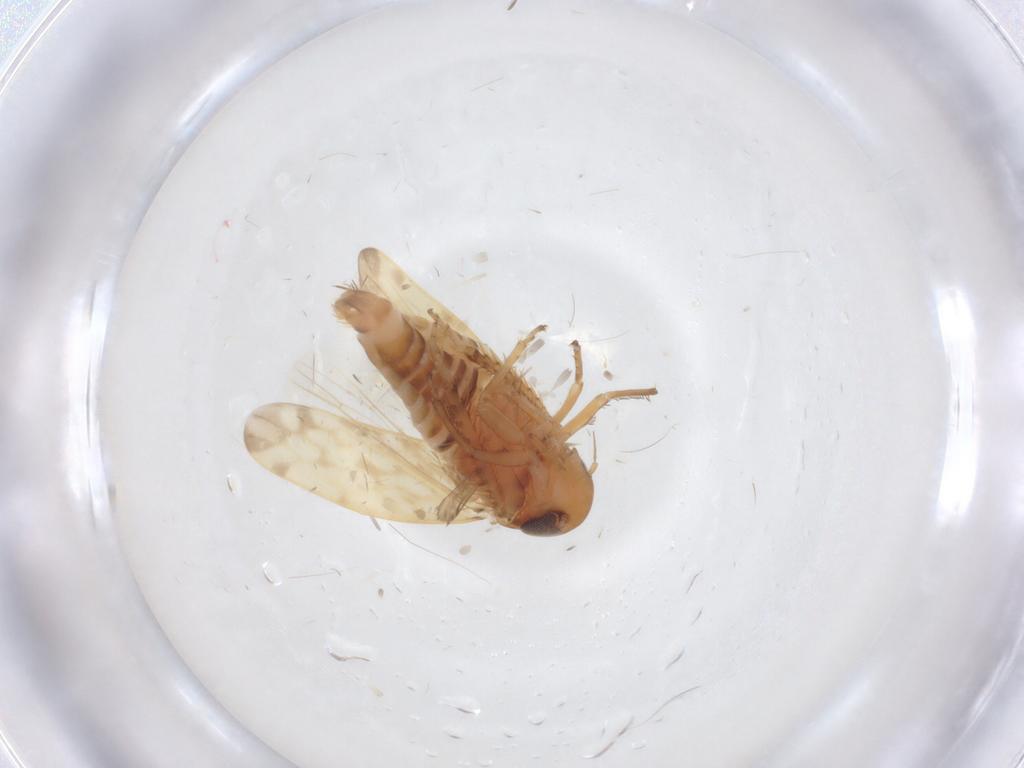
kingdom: Animalia
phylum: Arthropoda
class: Insecta
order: Hemiptera
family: Cicadellidae
